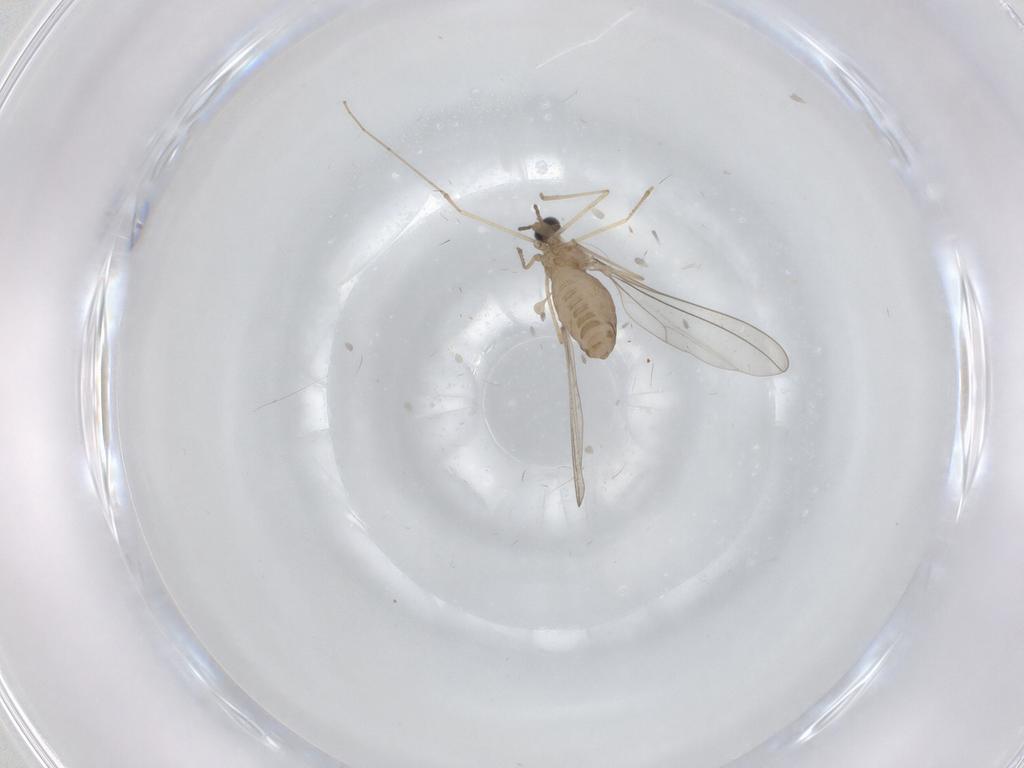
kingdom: Animalia
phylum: Arthropoda
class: Insecta
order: Diptera
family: Cecidomyiidae
